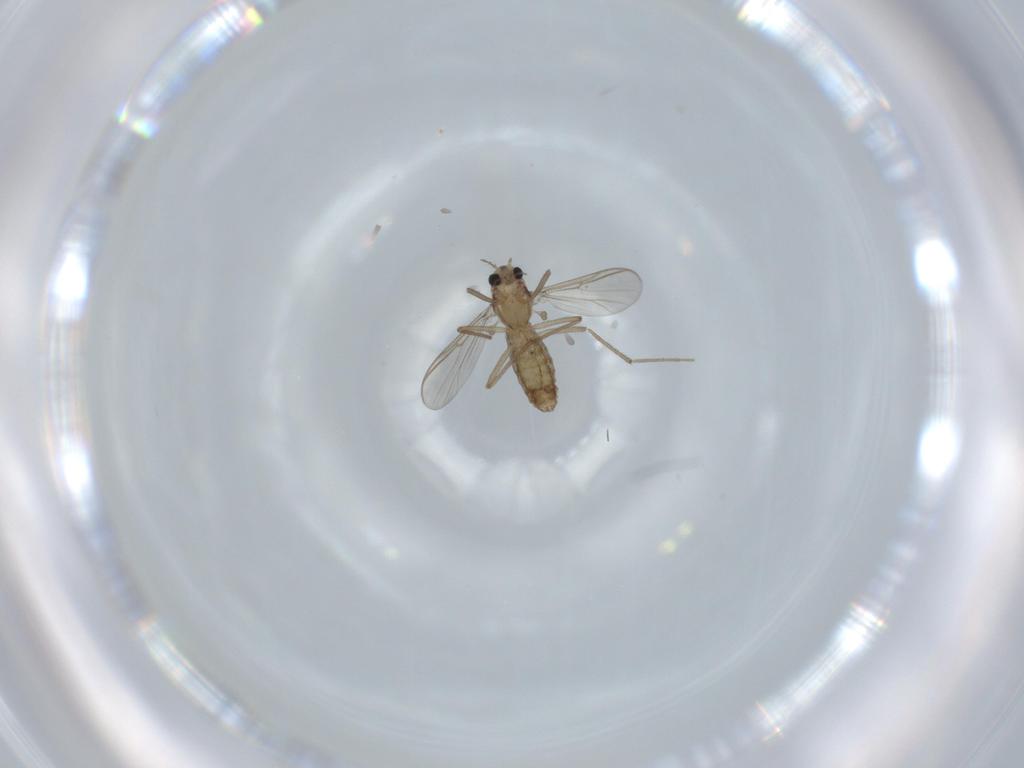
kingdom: Animalia
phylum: Arthropoda
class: Insecta
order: Diptera
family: Chironomidae
